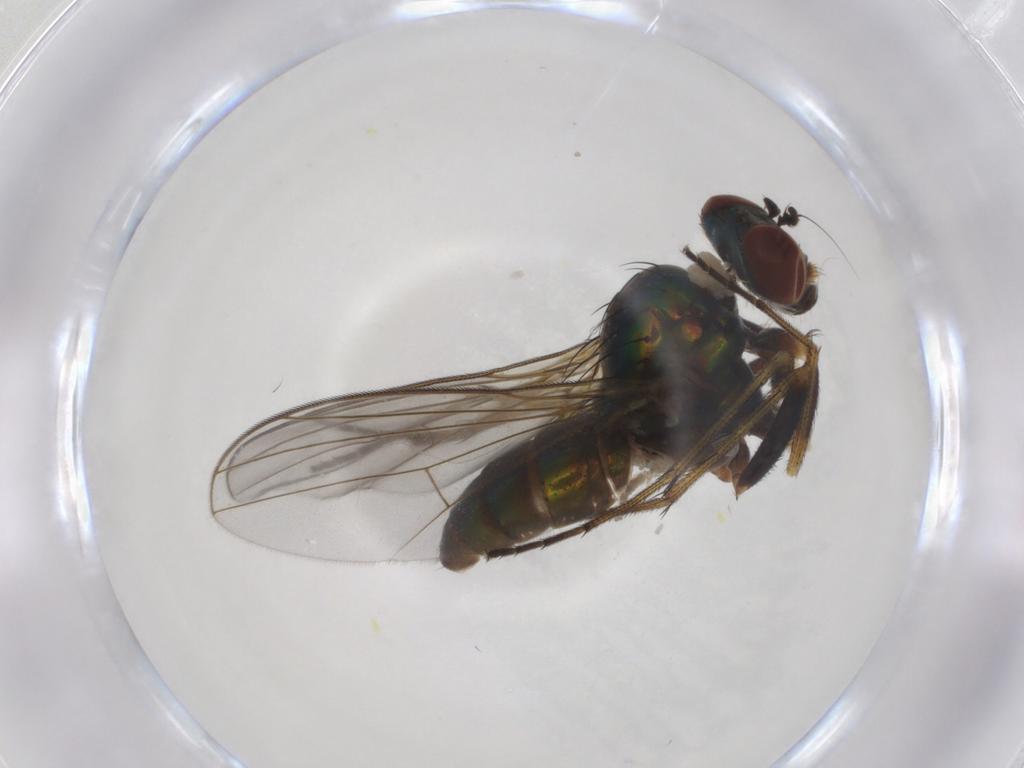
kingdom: Animalia
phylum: Arthropoda
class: Insecta
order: Diptera
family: Dolichopodidae
